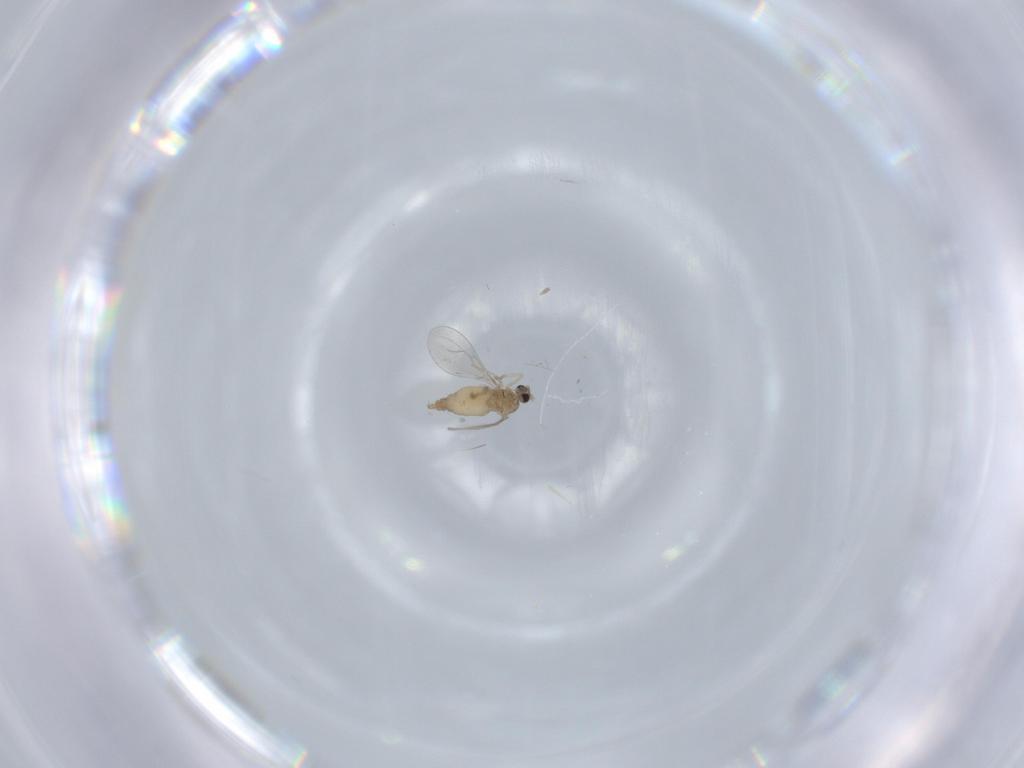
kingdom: Animalia
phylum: Arthropoda
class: Insecta
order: Diptera
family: Cecidomyiidae
